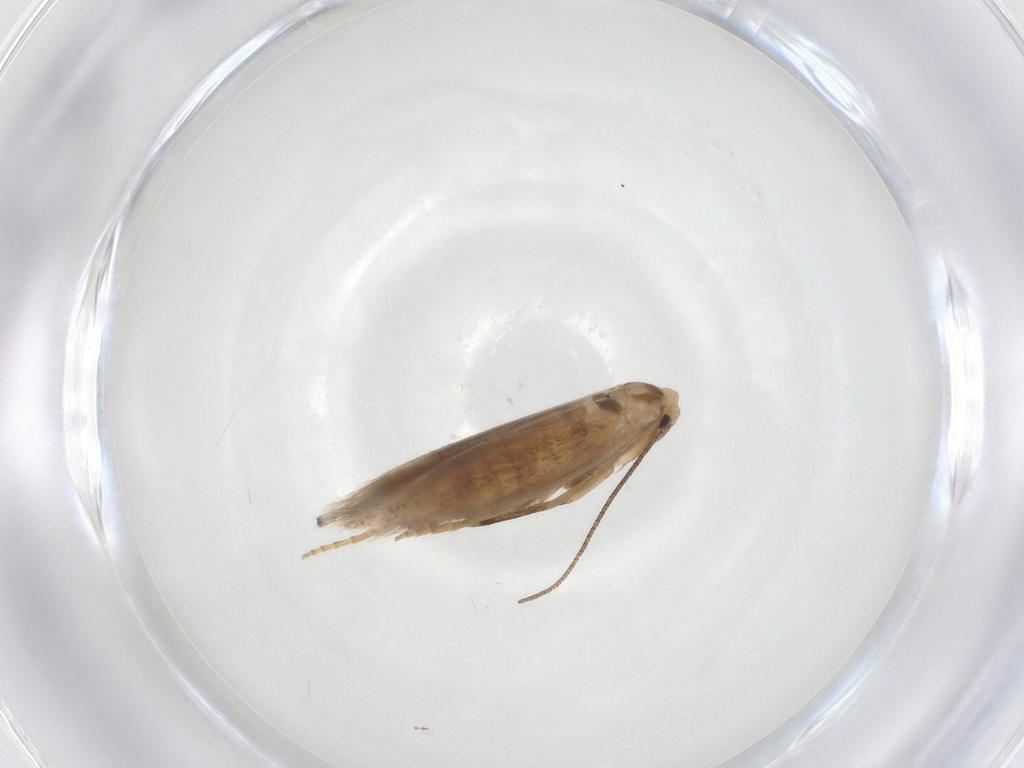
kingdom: Animalia
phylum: Arthropoda
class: Insecta
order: Lepidoptera
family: Bucculatricidae
